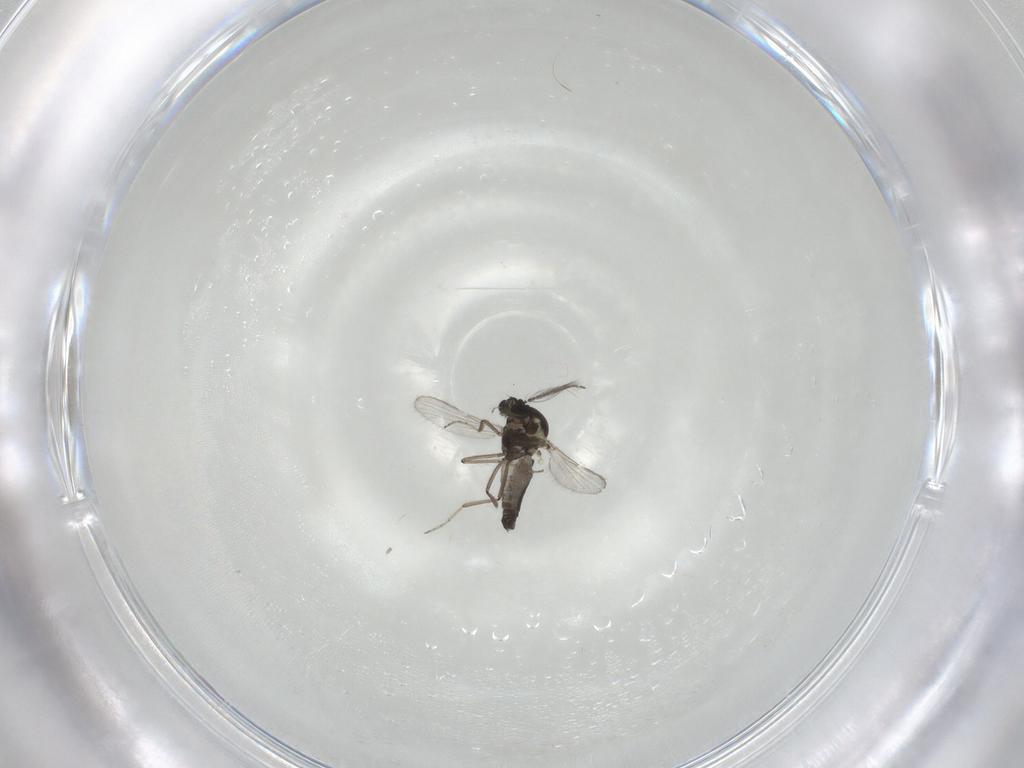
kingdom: Animalia
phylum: Arthropoda
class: Insecta
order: Diptera
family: Ceratopogonidae
